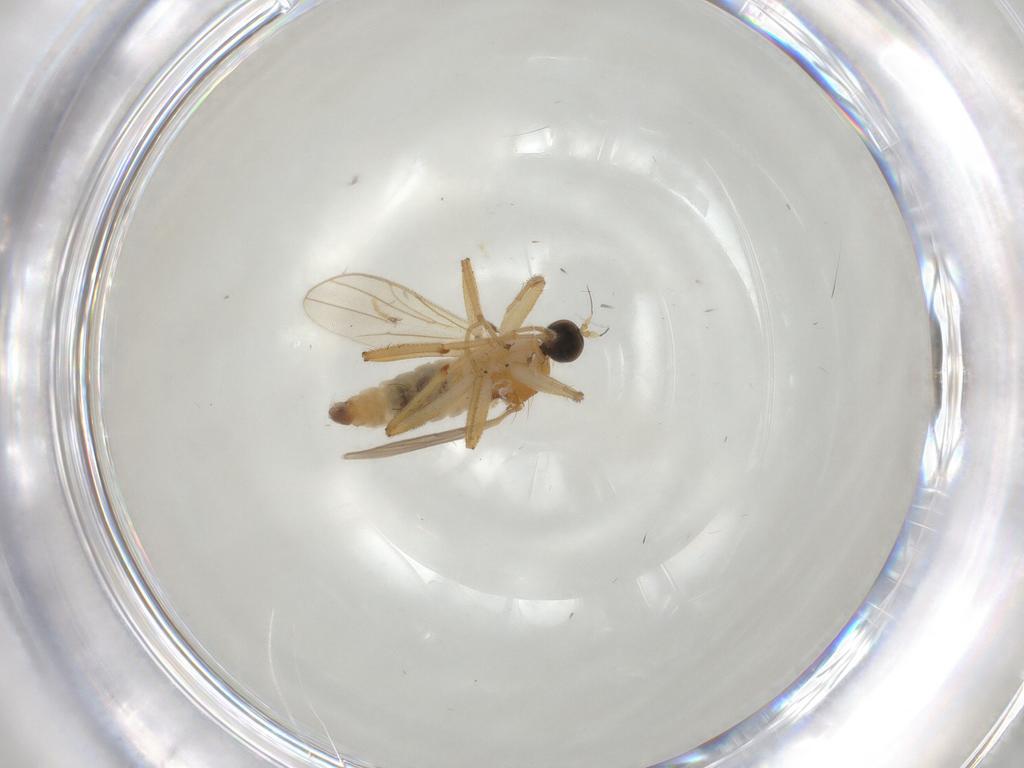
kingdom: Animalia
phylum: Arthropoda
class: Insecta
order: Diptera
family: Hybotidae
